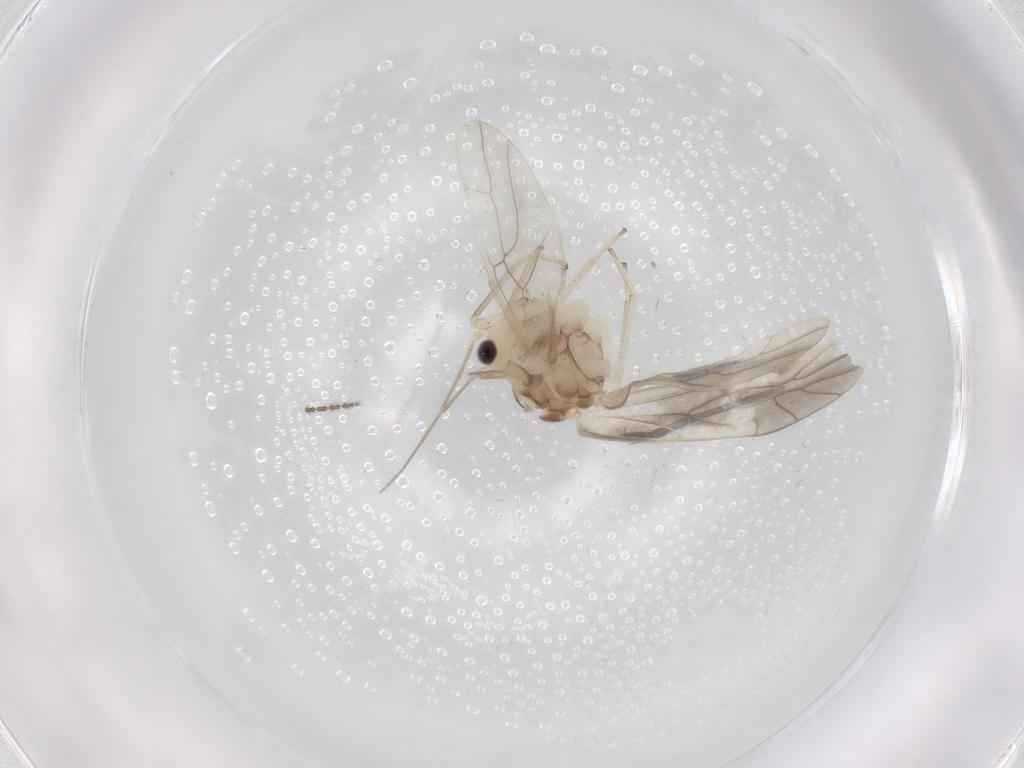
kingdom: Animalia
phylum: Arthropoda
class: Insecta
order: Psocodea
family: Caeciliusidae
